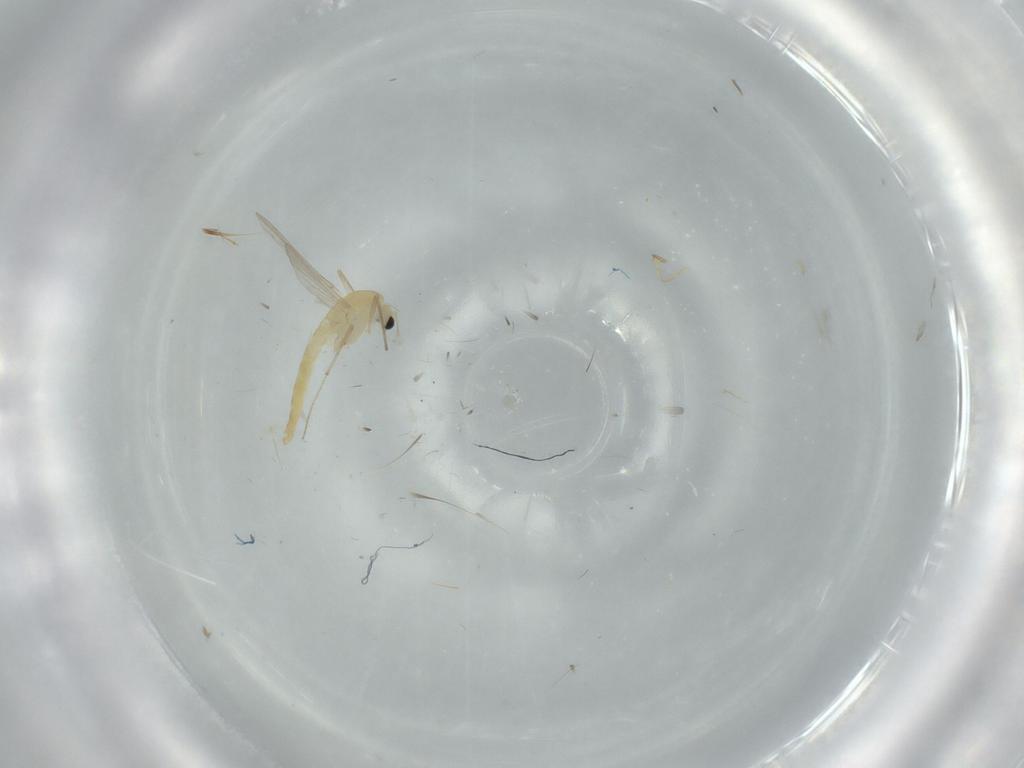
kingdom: Animalia
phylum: Arthropoda
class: Insecta
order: Diptera
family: Cecidomyiidae
